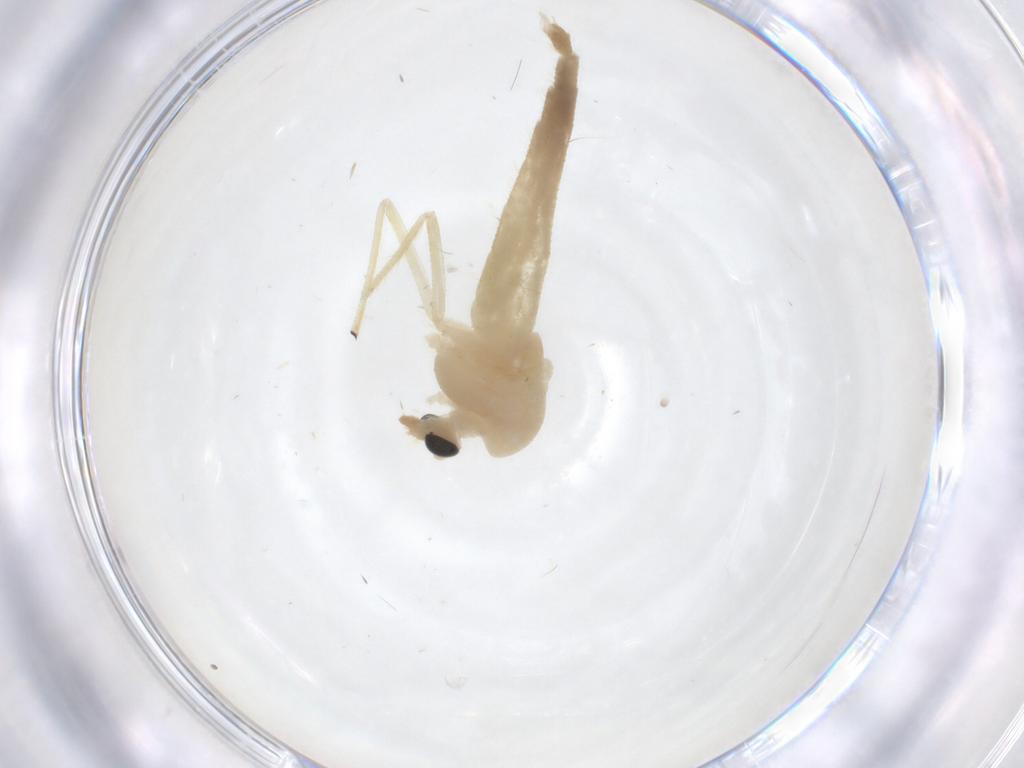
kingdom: Animalia
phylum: Arthropoda
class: Insecta
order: Diptera
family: Chironomidae
